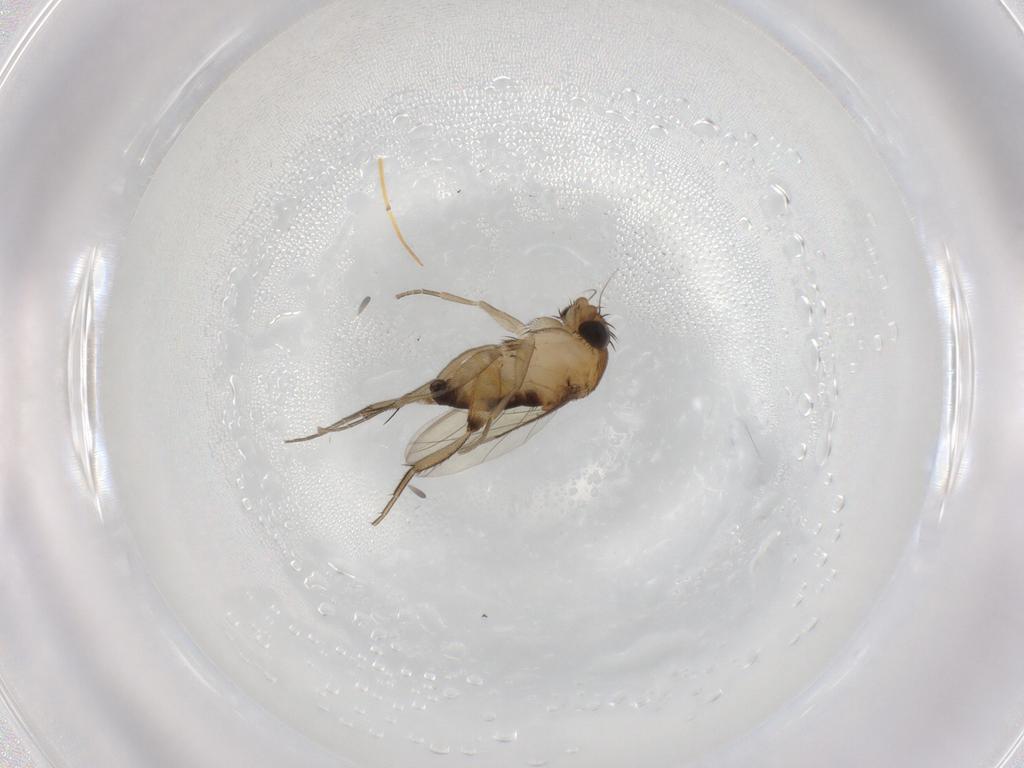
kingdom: Animalia
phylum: Arthropoda
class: Insecta
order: Diptera
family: Phoridae
